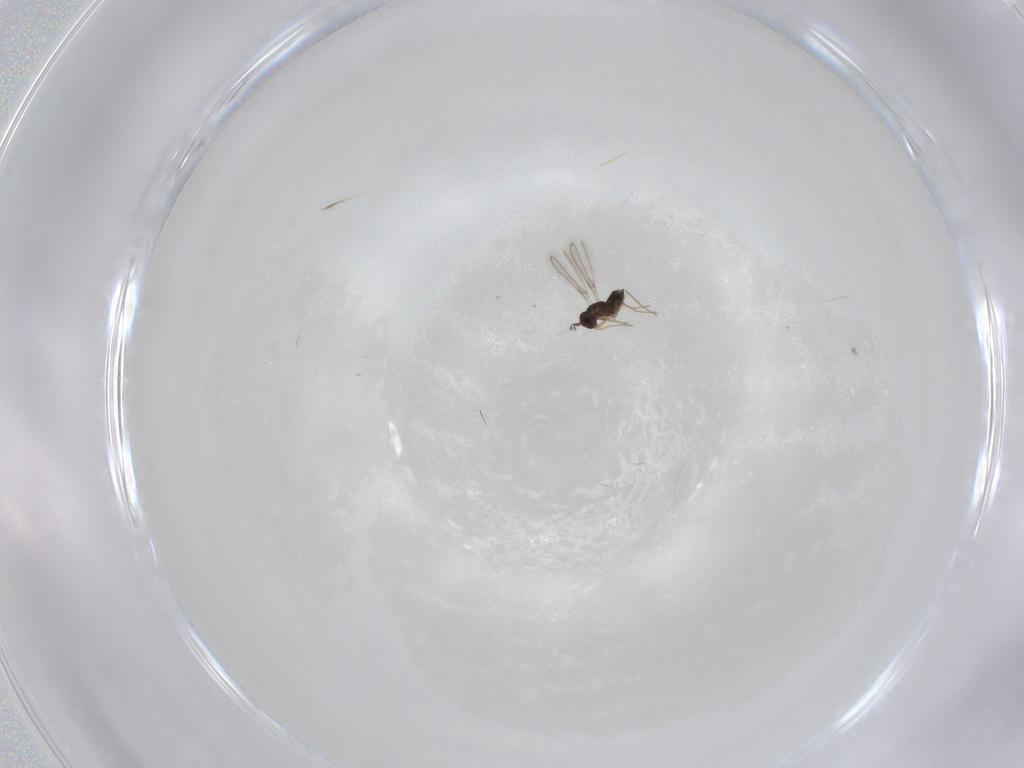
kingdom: Animalia
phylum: Arthropoda
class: Insecta
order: Hymenoptera
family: Mymaridae
